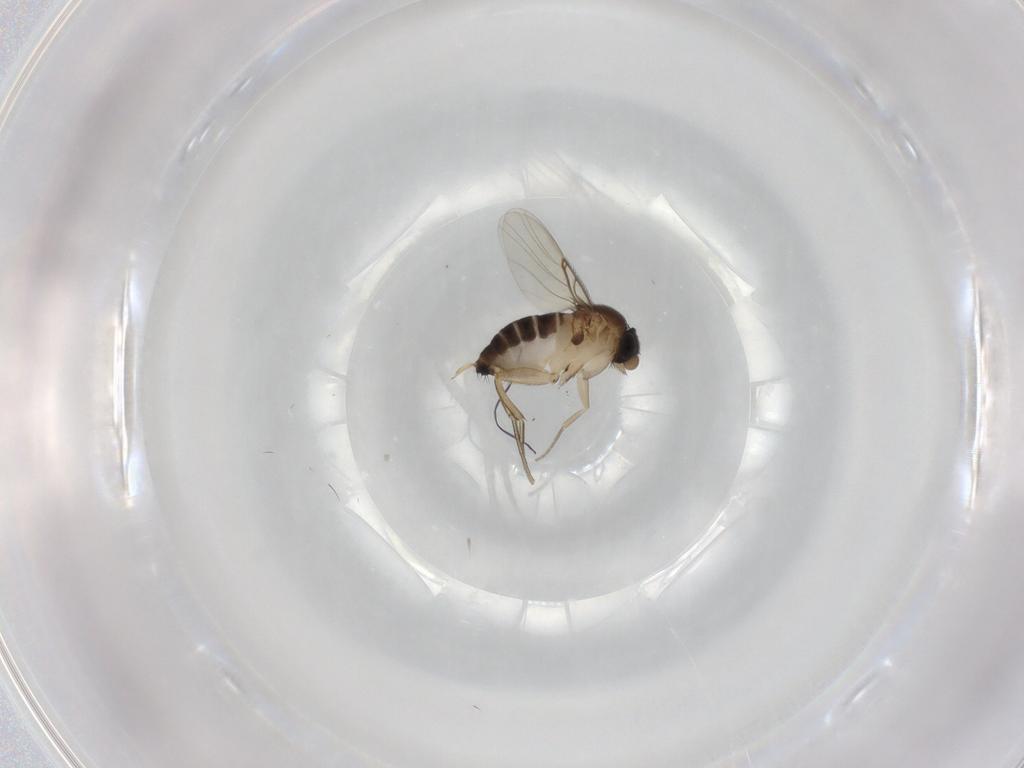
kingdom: Animalia
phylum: Arthropoda
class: Insecta
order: Diptera
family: Phoridae
